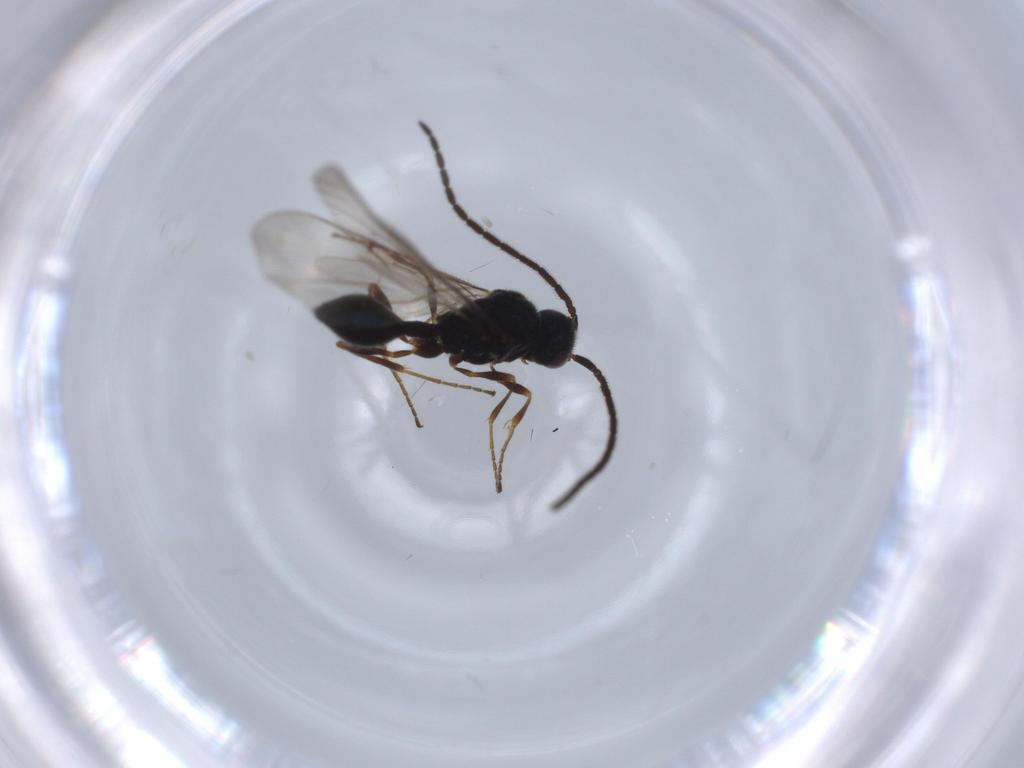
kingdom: Animalia
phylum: Arthropoda
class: Insecta
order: Hymenoptera
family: Diapriidae
